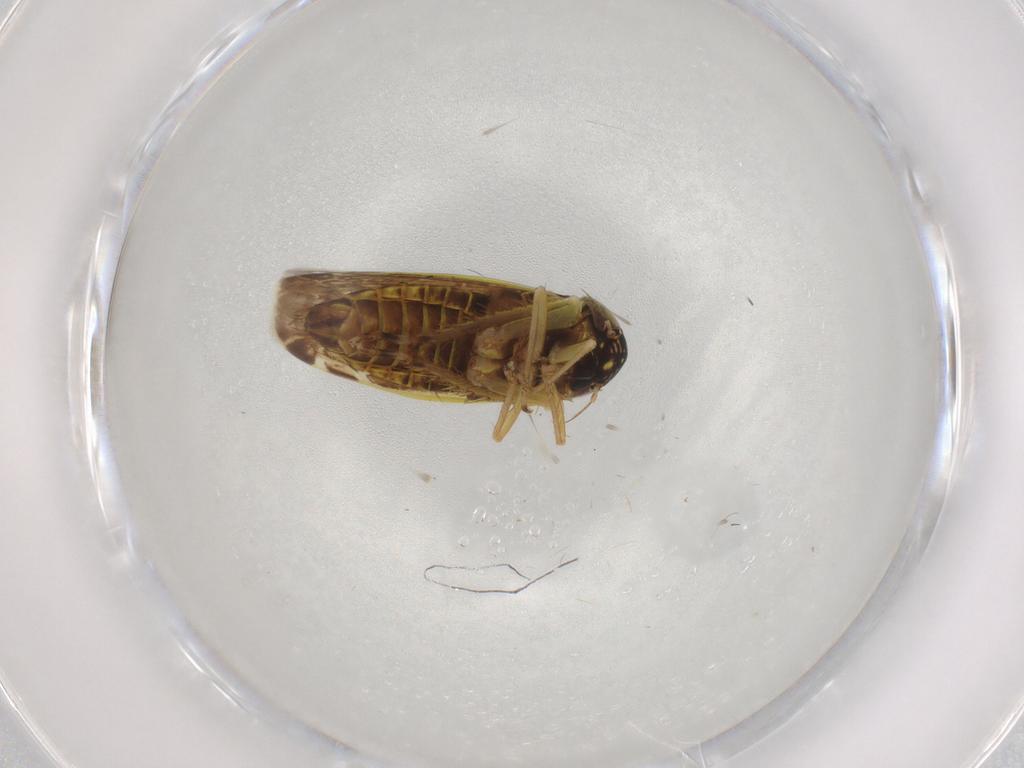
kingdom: Animalia
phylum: Arthropoda
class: Insecta
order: Hemiptera
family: Cicadellidae
